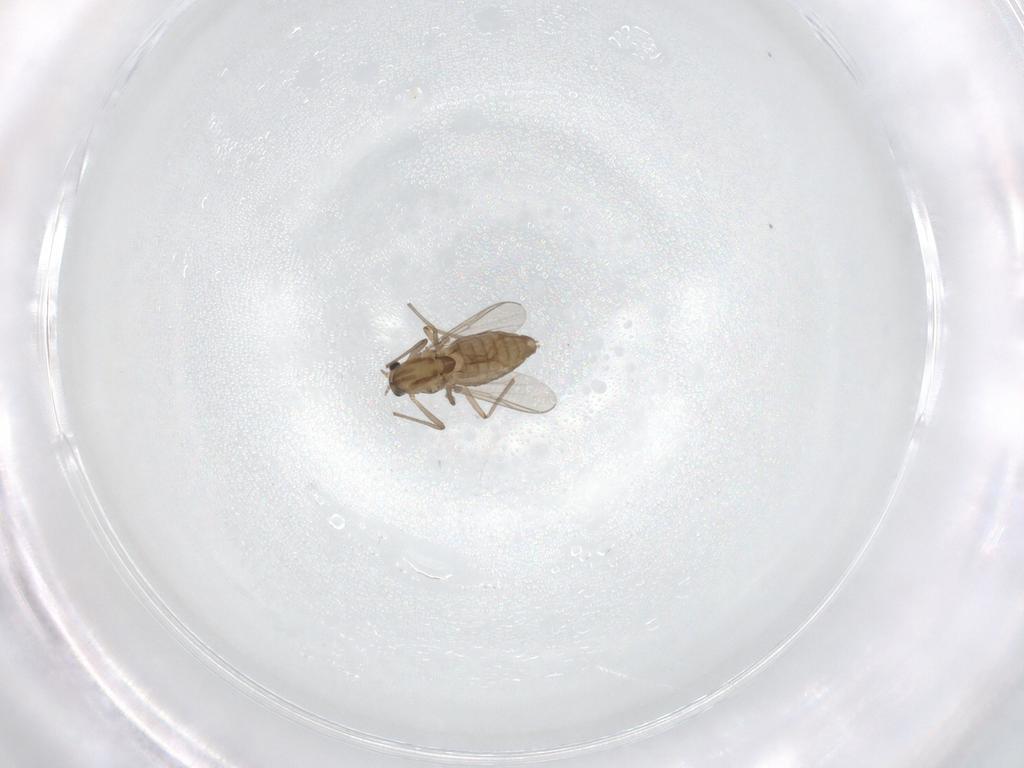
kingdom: Animalia
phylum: Arthropoda
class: Insecta
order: Diptera
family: Chironomidae
